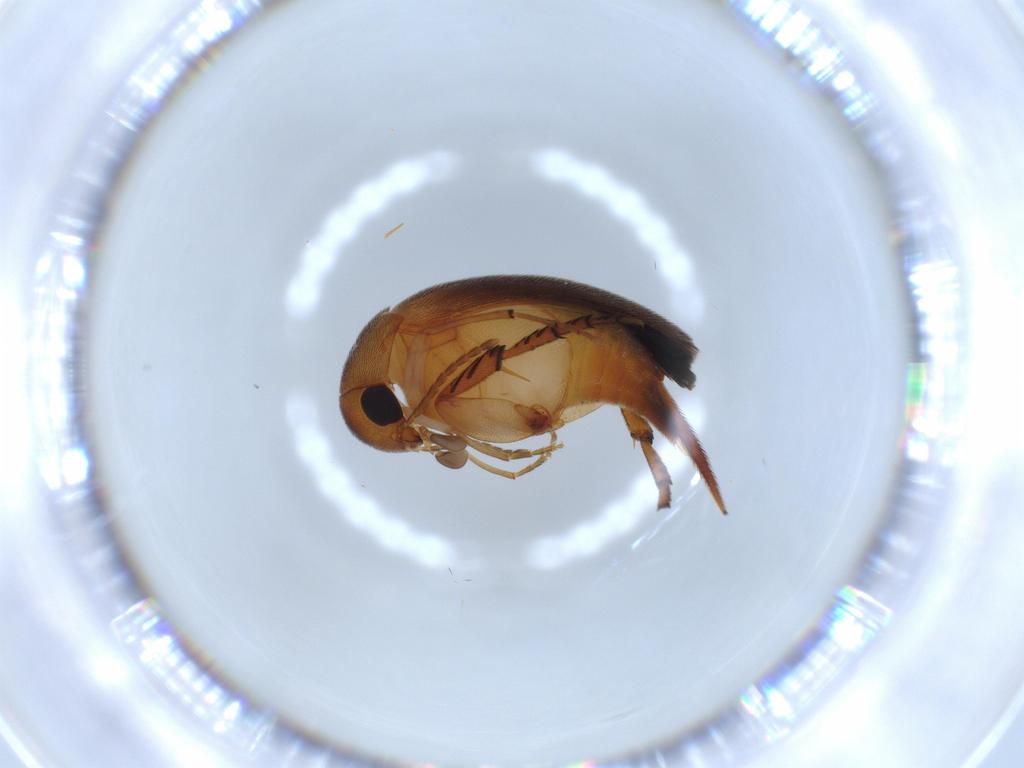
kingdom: Animalia
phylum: Arthropoda
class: Insecta
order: Coleoptera
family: Mordellidae
